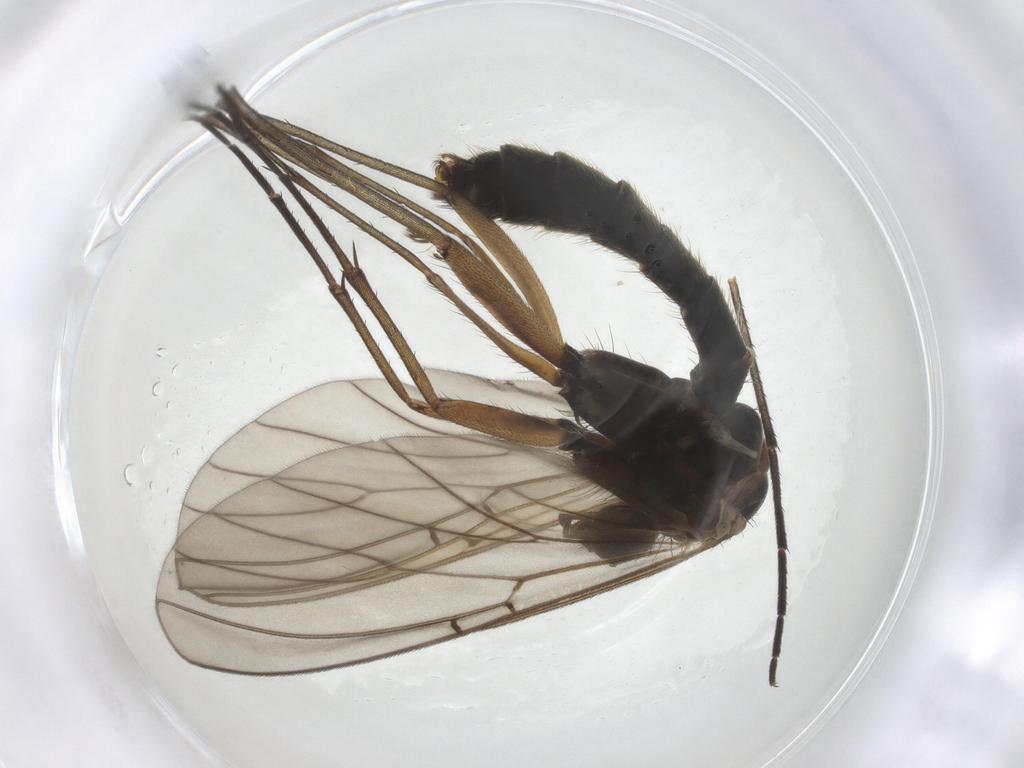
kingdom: Animalia
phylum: Arthropoda
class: Insecta
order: Diptera
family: Mycetophilidae
